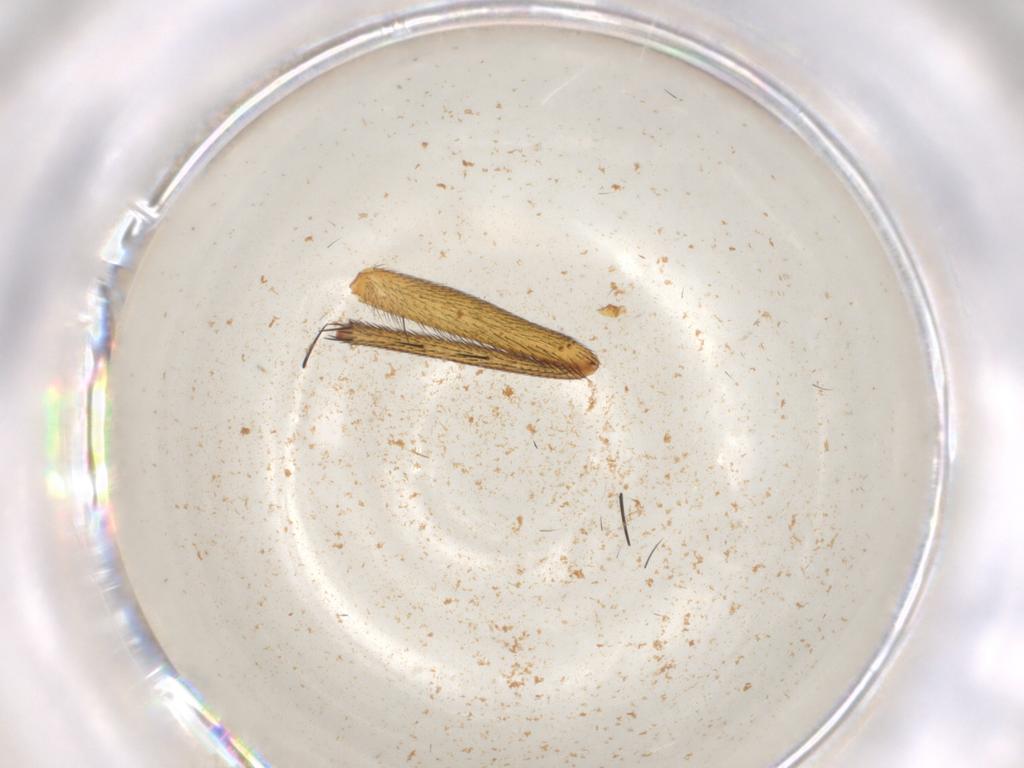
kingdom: Animalia
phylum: Arthropoda
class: Insecta
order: Diptera
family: Muscidae
